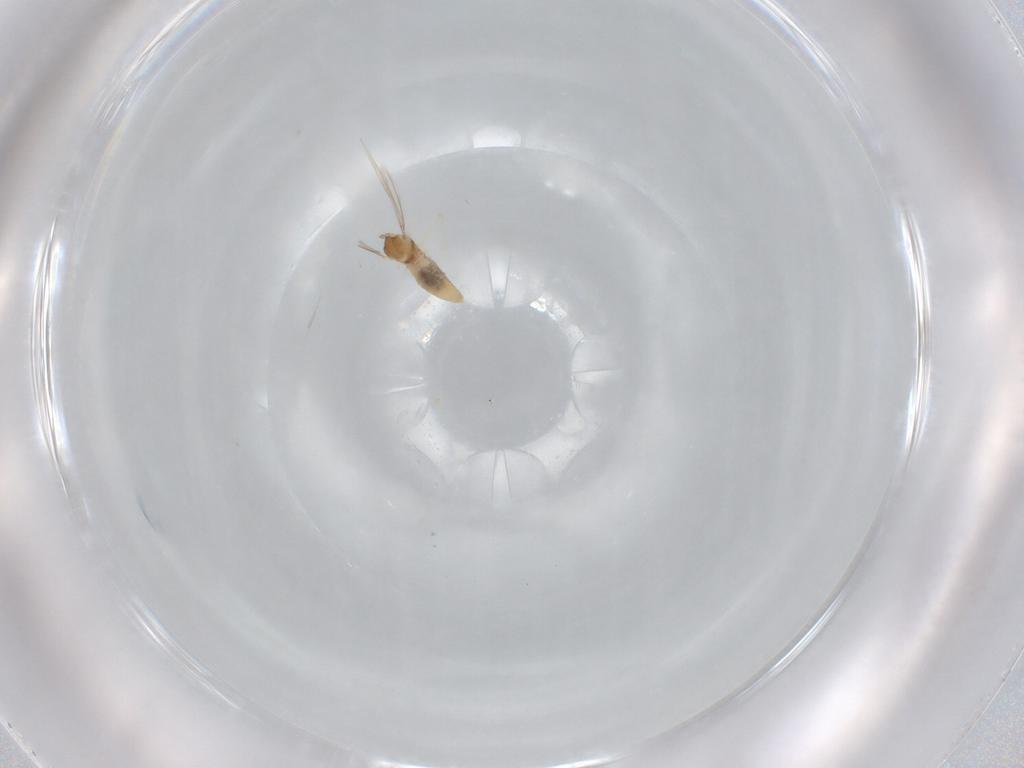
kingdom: Animalia
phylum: Arthropoda
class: Insecta
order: Diptera
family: Cecidomyiidae
